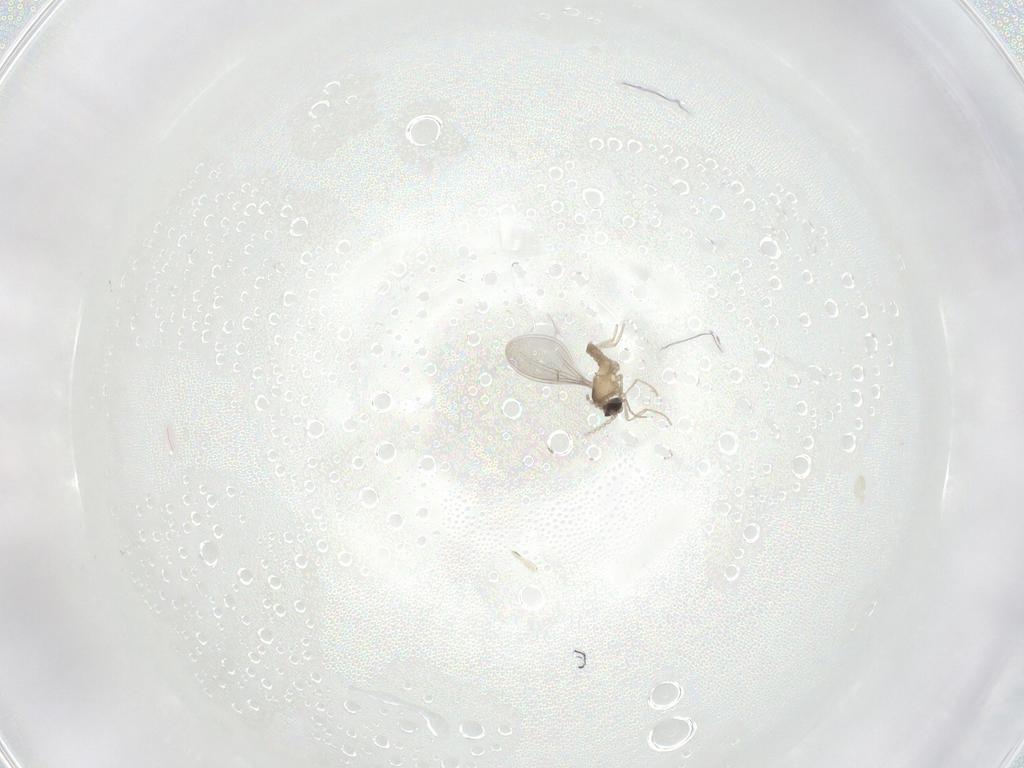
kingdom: Animalia
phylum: Arthropoda
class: Insecta
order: Diptera
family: Cecidomyiidae
